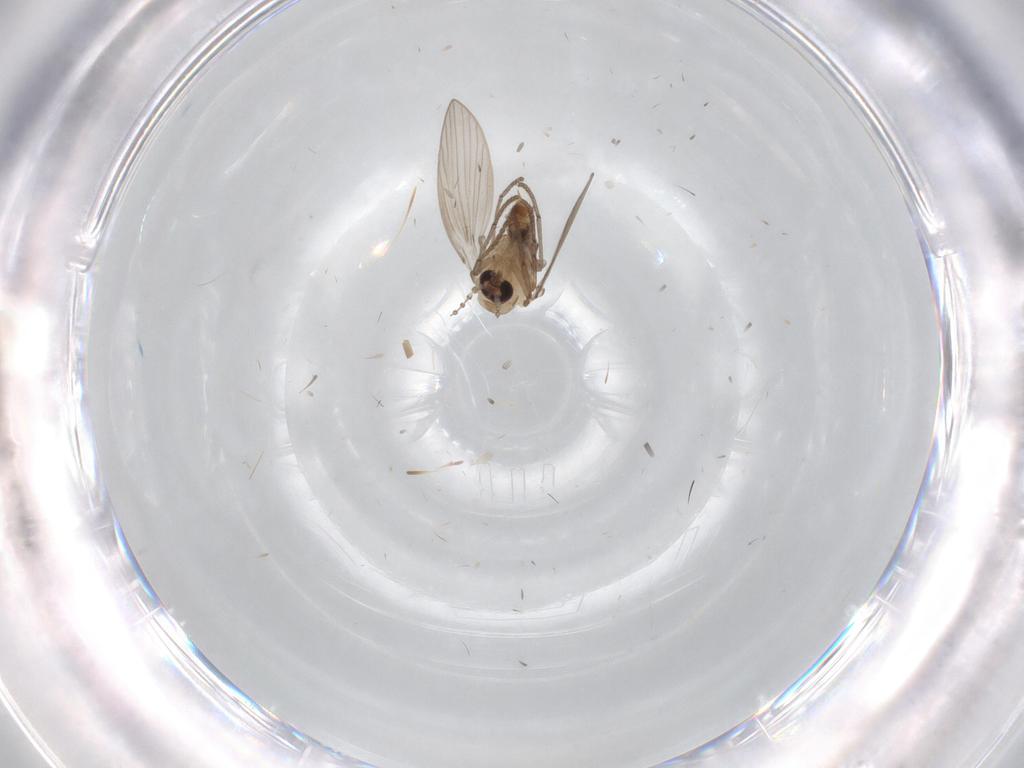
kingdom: Animalia
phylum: Arthropoda
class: Insecta
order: Diptera
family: Psychodidae
